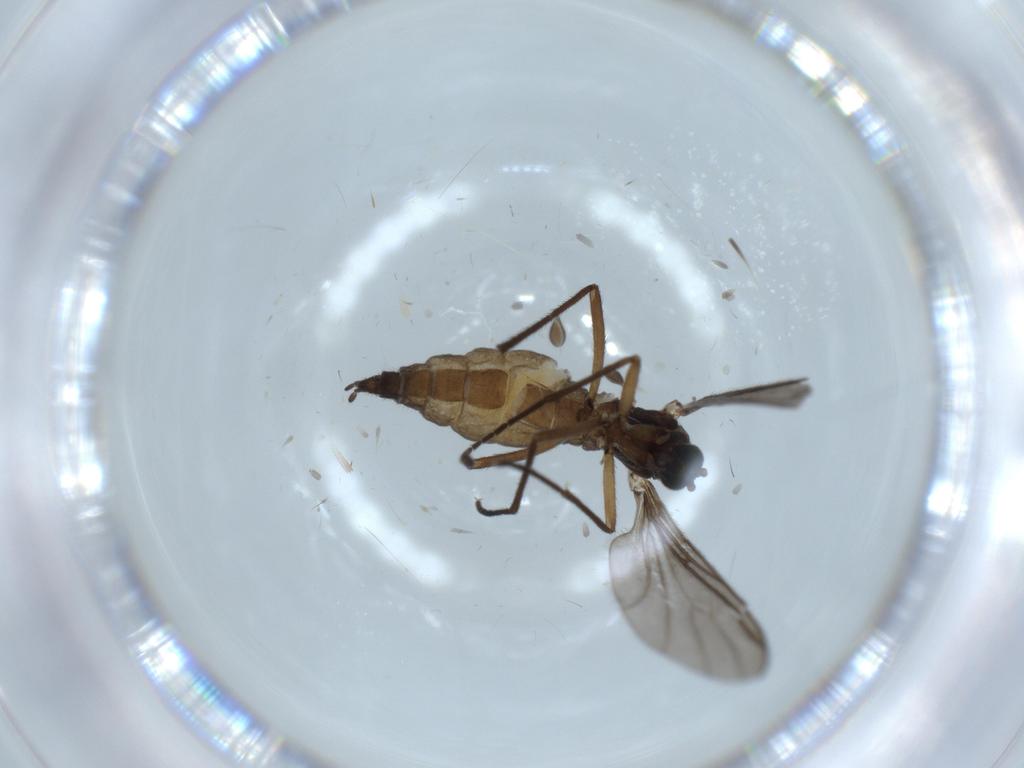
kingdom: Animalia
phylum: Arthropoda
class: Insecta
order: Diptera
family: Sciaridae
